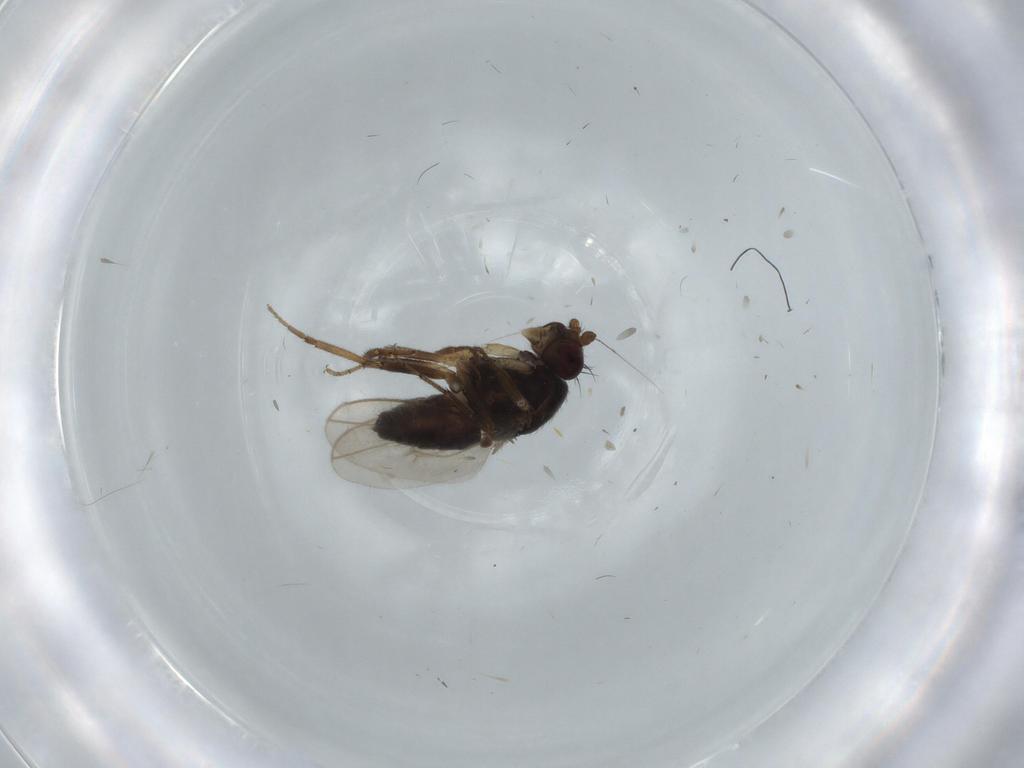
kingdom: Animalia
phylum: Arthropoda
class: Insecta
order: Diptera
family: Sphaeroceridae
